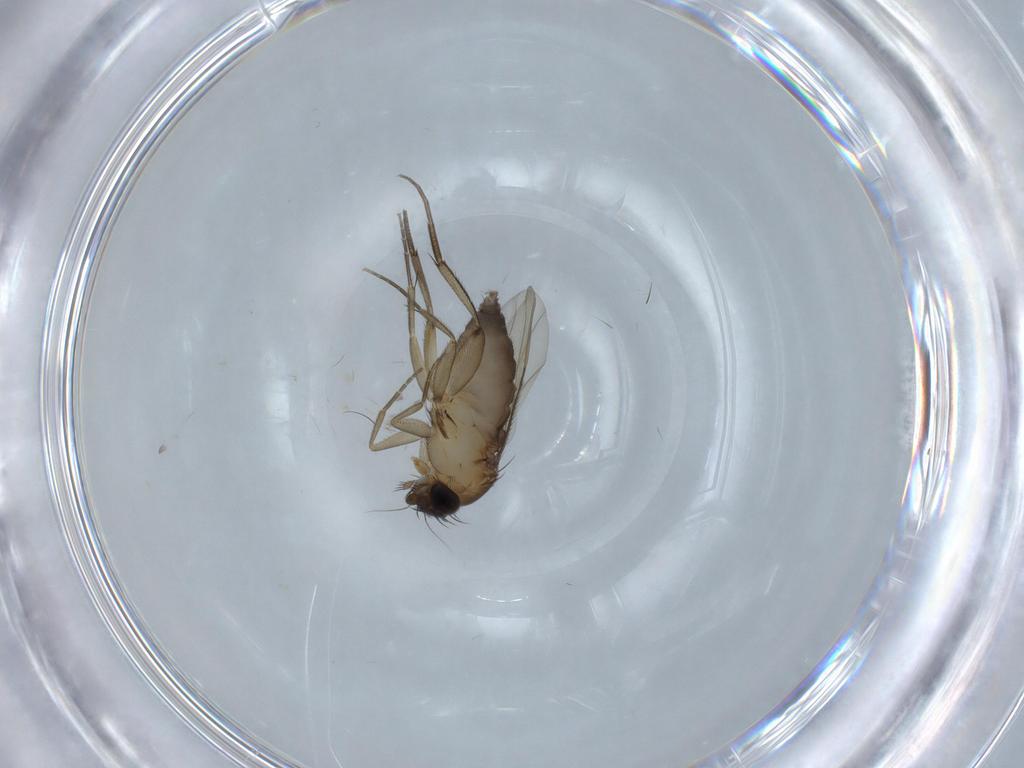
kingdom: Animalia
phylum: Arthropoda
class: Insecta
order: Diptera
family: Phoridae
